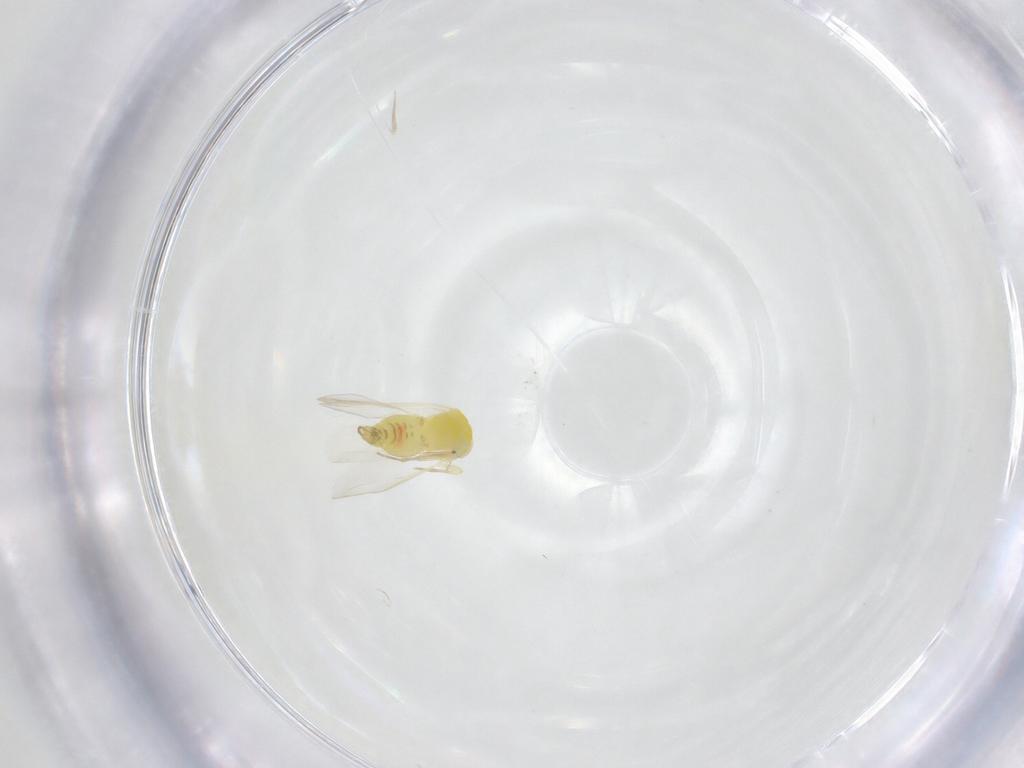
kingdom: Animalia
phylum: Arthropoda
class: Insecta
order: Hemiptera
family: Aleyrodidae
